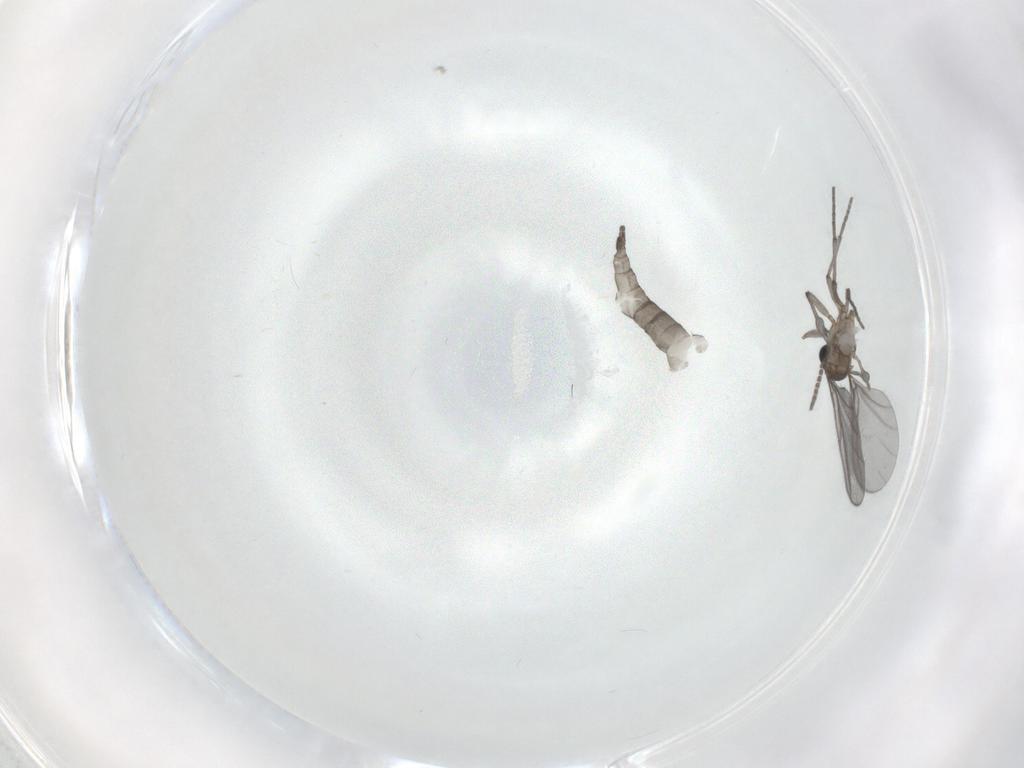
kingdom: Animalia
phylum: Arthropoda
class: Insecta
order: Diptera
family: Sciaridae
